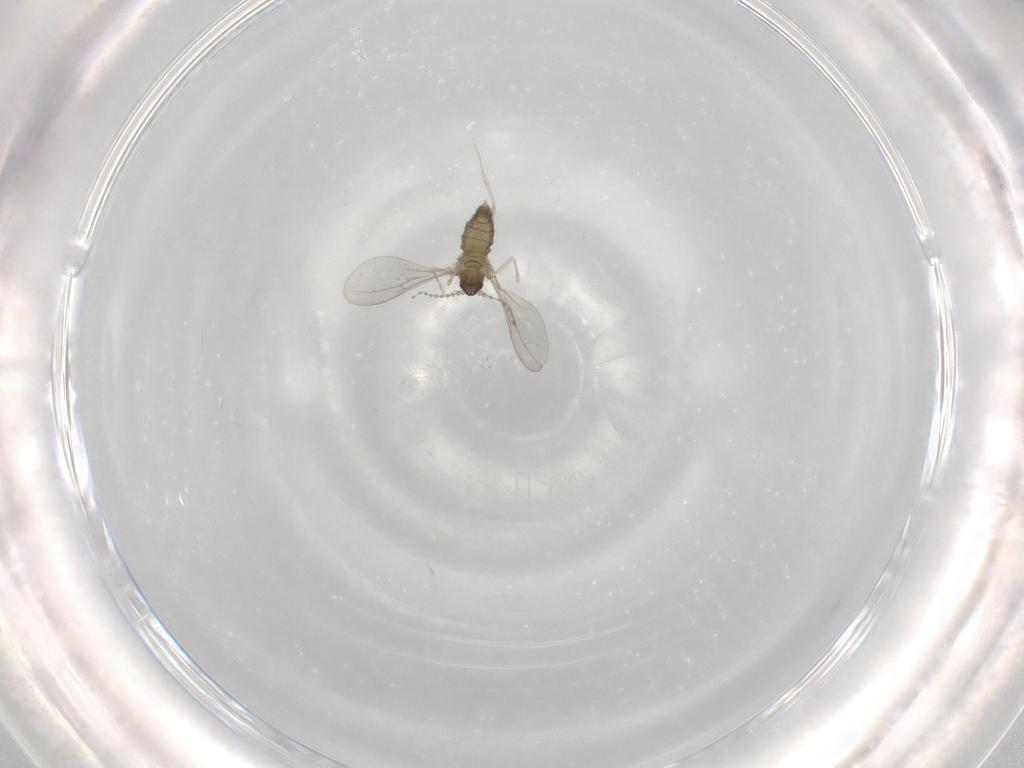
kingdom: Animalia
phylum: Arthropoda
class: Insecta
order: Diptera
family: Cecidomyiidae
